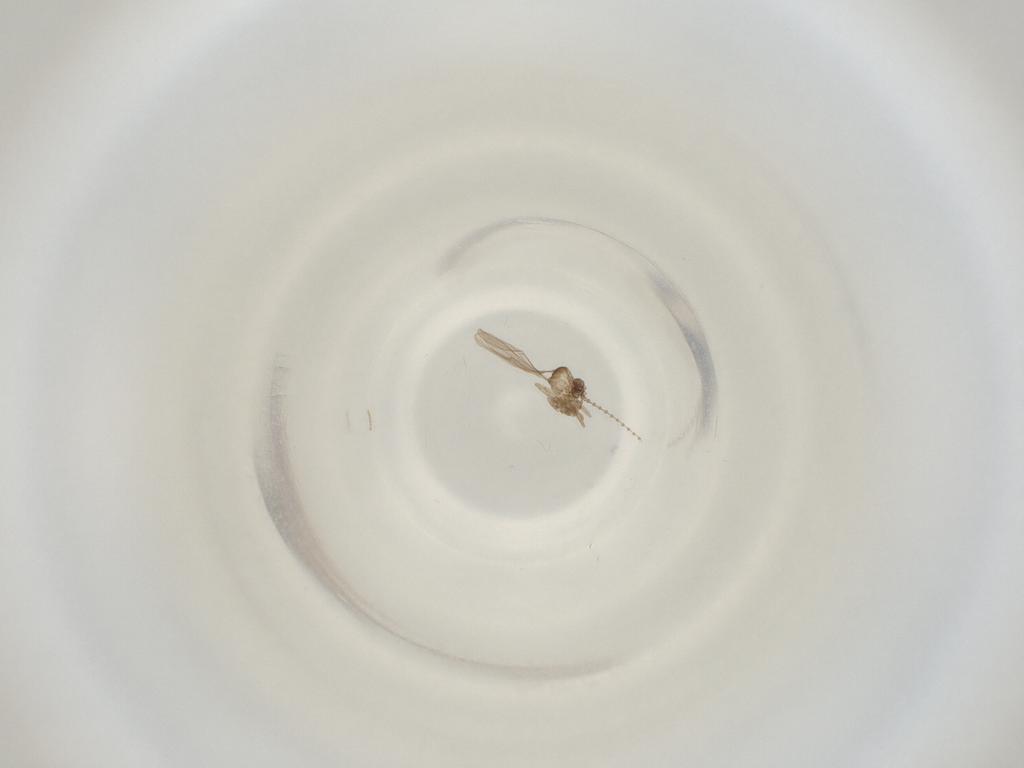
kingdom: Animalia
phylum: Arthropoda
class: Insecta
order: Diptera
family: Cecidomyiidae
